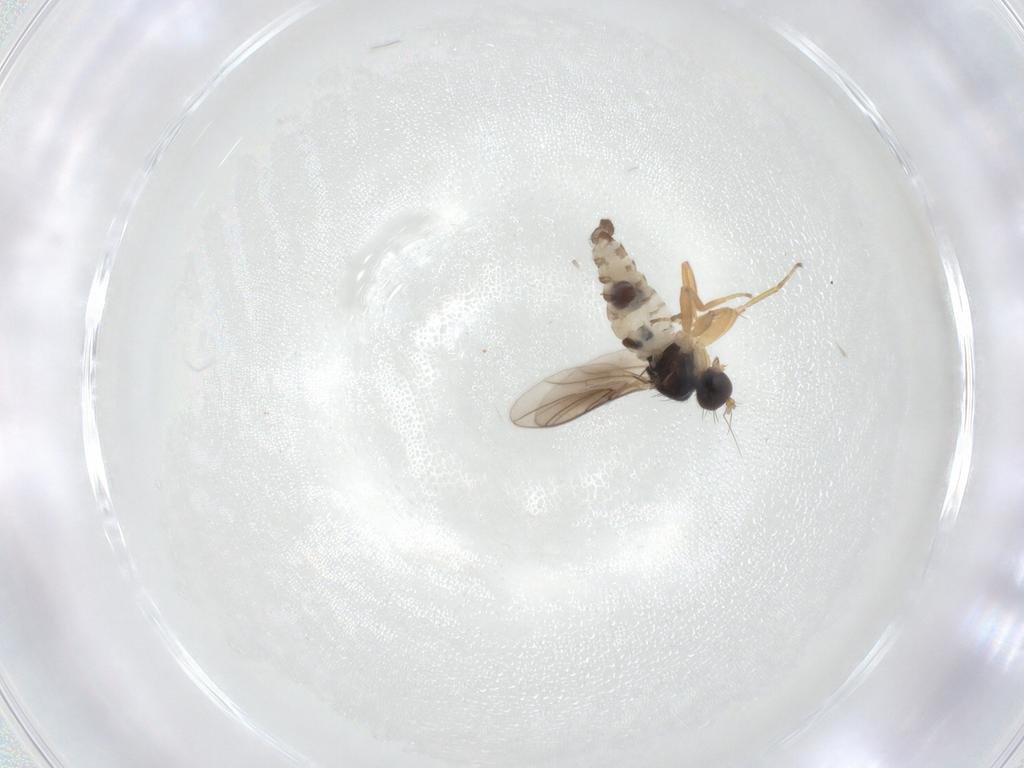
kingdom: Animalia
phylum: Arthropoda
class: Insecta
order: Diptera
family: Hybotidae
